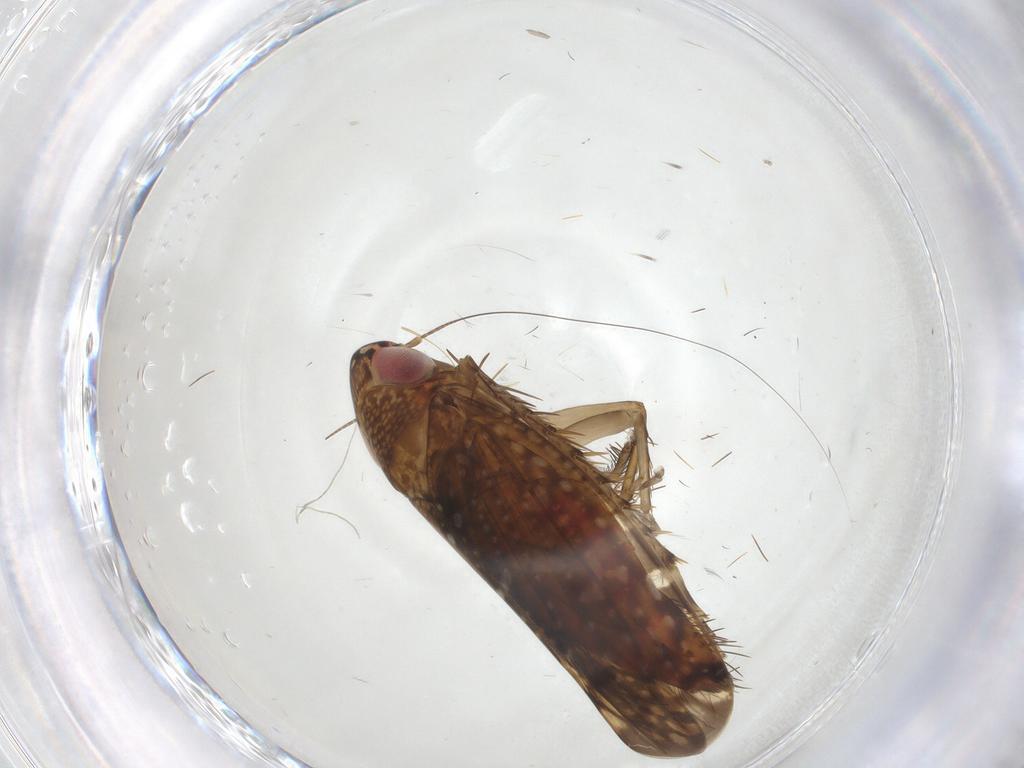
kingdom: Animalia
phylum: Arthropoda
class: Insecta
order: Hemiptera
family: Cicadellidae
